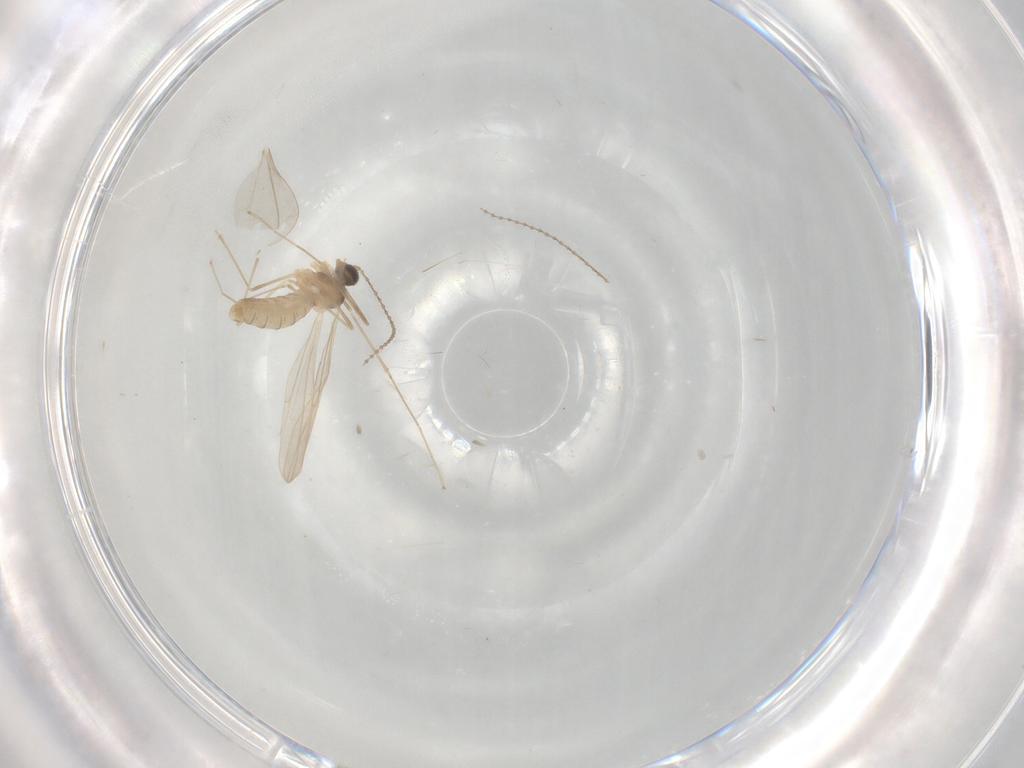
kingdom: Animalia
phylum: Arthropoda
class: Insecta
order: Diptera
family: Cecidomyiidae
